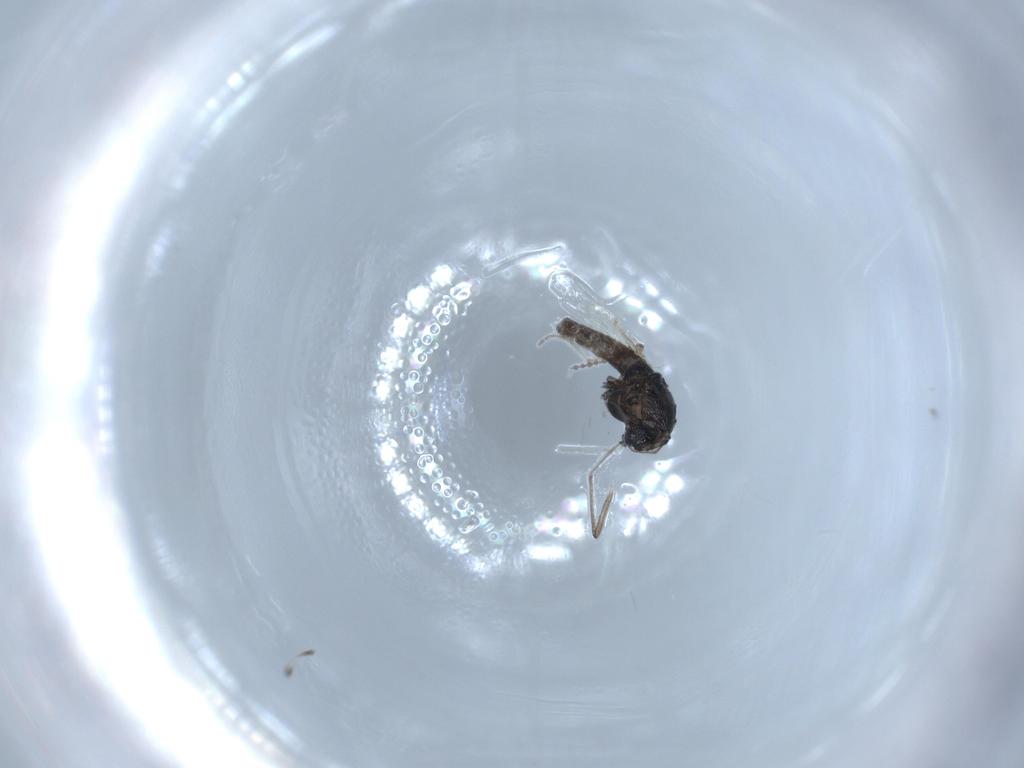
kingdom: Animalia
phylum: Arthropoda
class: Insecta
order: Diptera
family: Cecidomyiidae
